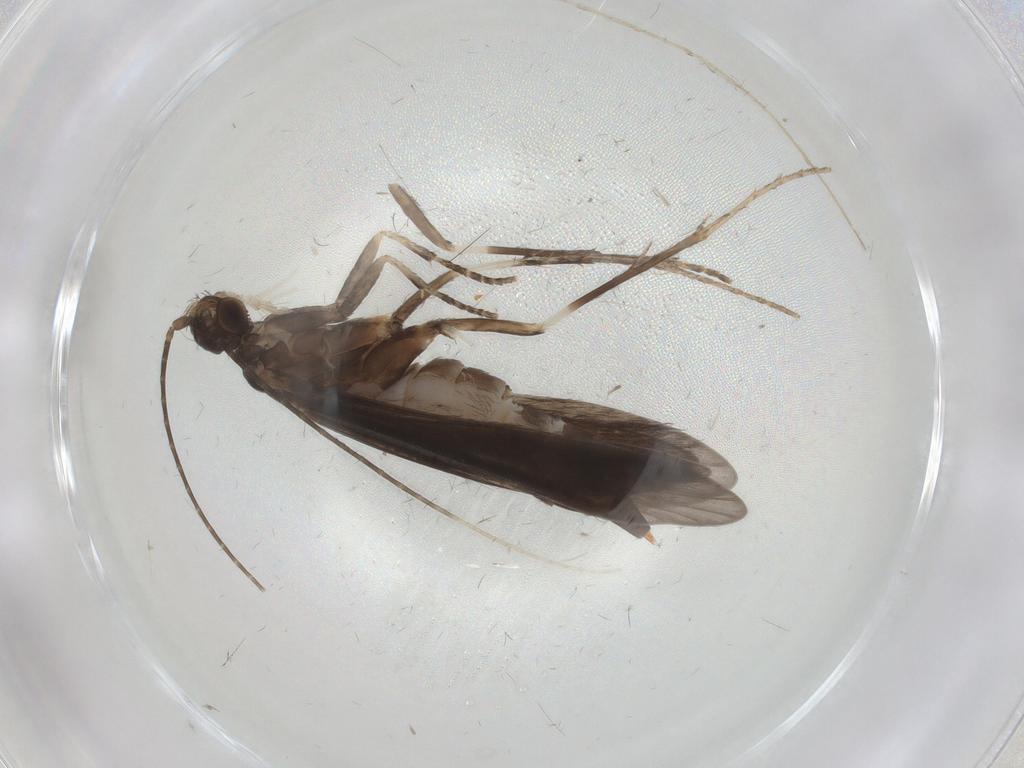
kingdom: Animalia
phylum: Arthropoda
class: Insecta
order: Trichoptera
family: Xiphocentronidae
